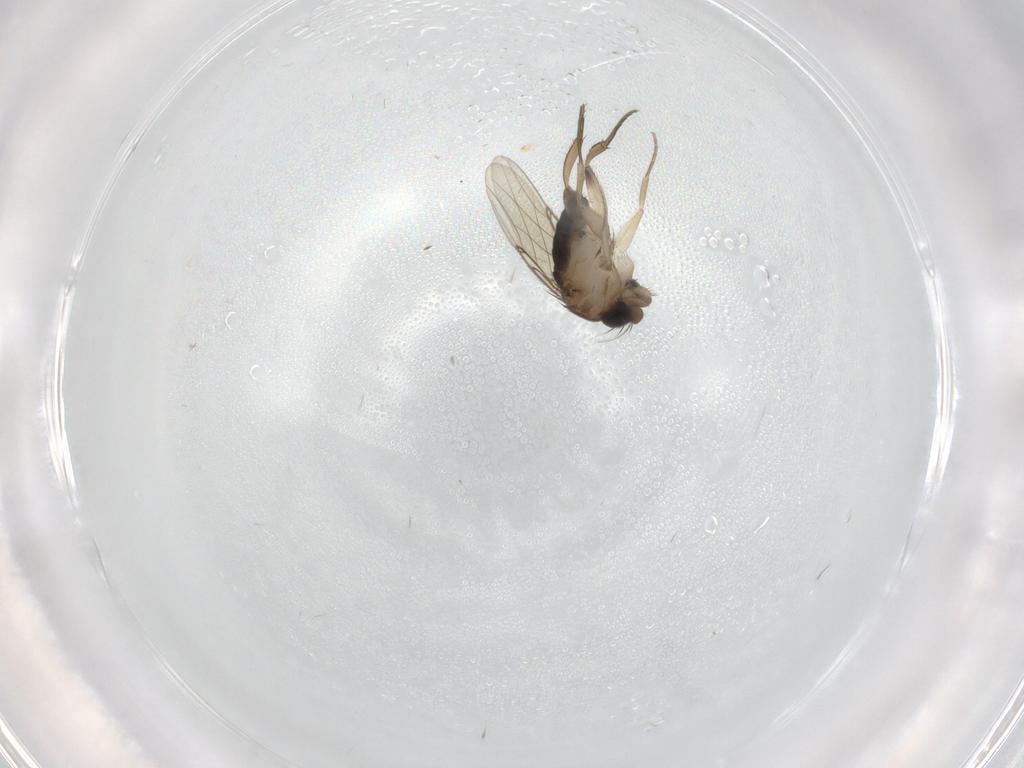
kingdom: Animalia
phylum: Arthropoda
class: Insecta
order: Diptera
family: Phoridae
